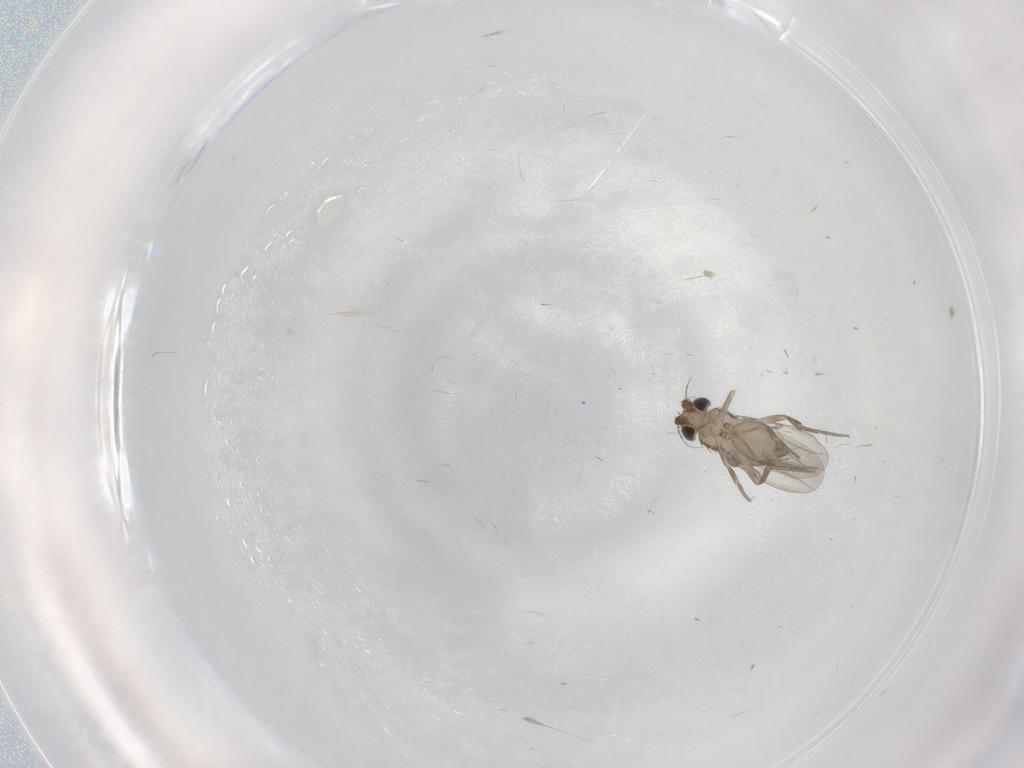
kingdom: Animalia
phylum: Arthropoda
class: Insecta
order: Diptera
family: Phoridae
